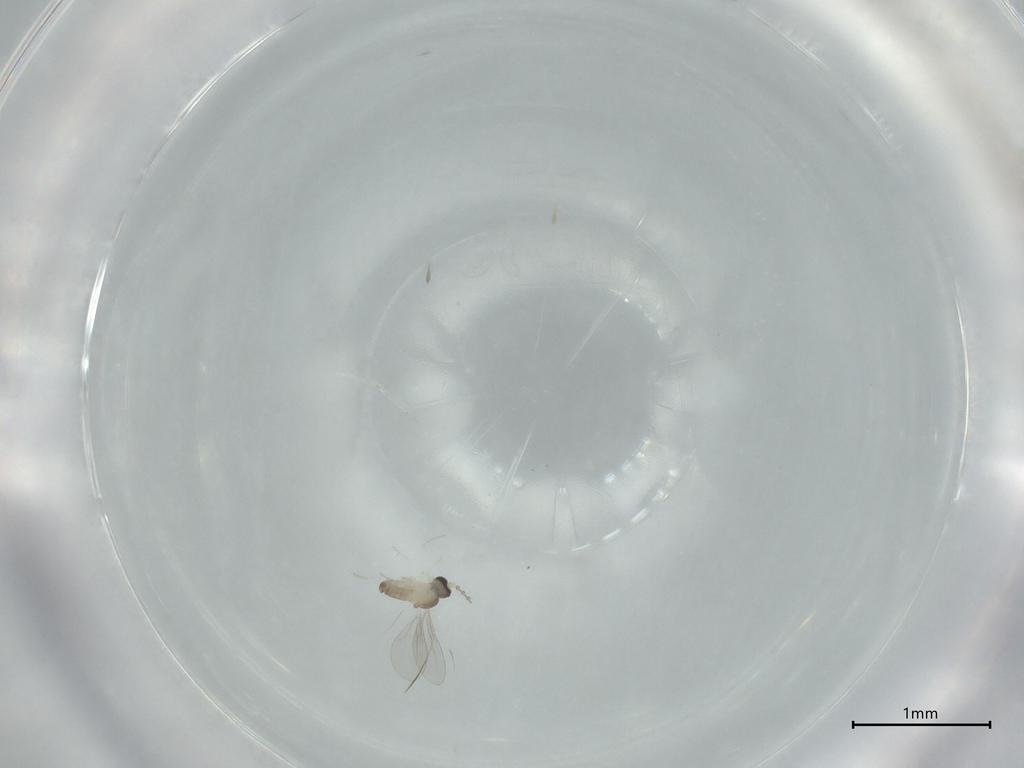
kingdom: Animalia
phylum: Arthropoda
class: Insecta
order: Diptera
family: Cecidomyiidae
